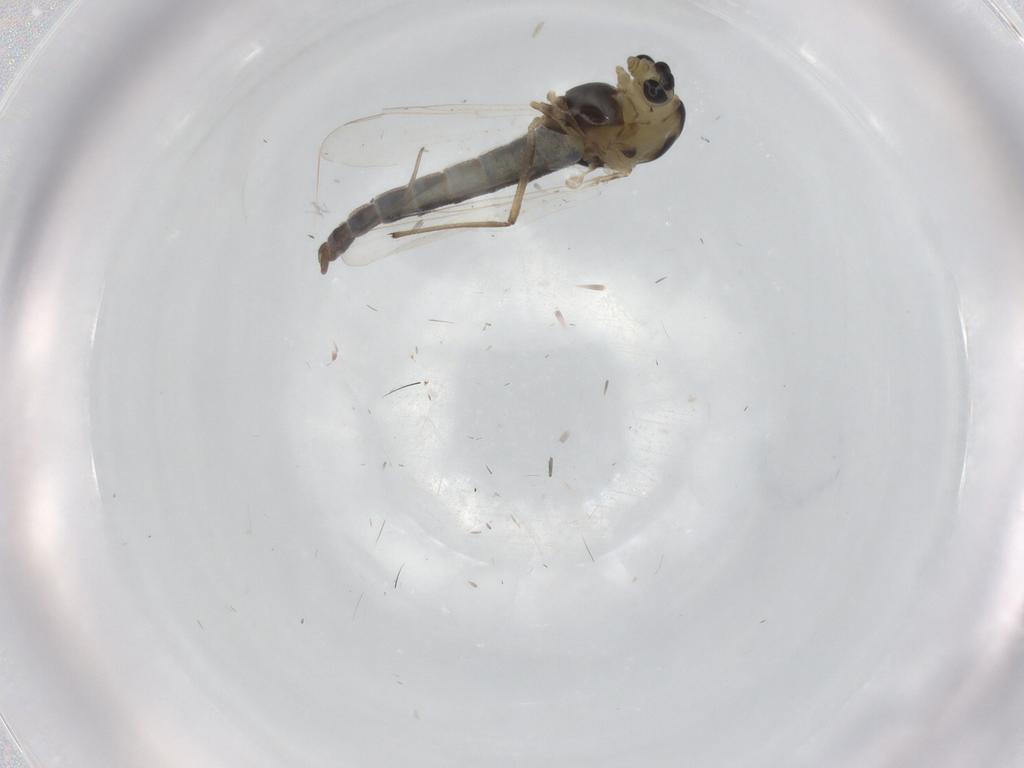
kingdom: Animalia
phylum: Arthropoda
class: Insecta
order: Diptera
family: Chironomidae
